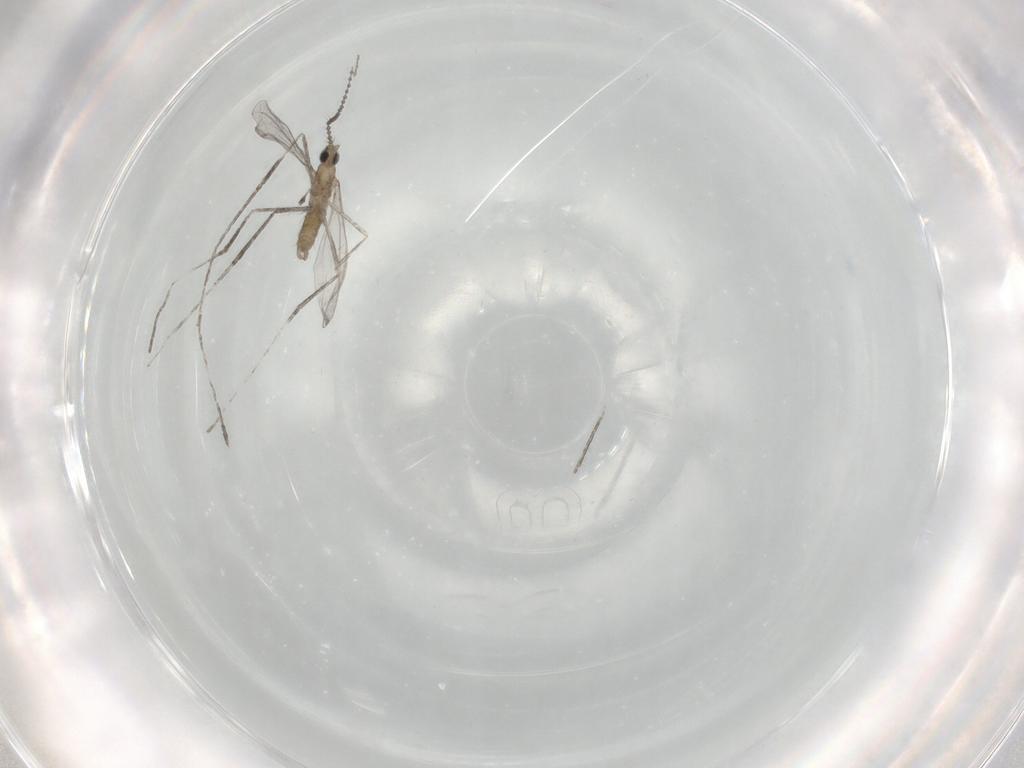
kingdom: Animalia
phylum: Arthropoda
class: Insecta
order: Diptera
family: Cecidomyiidae
